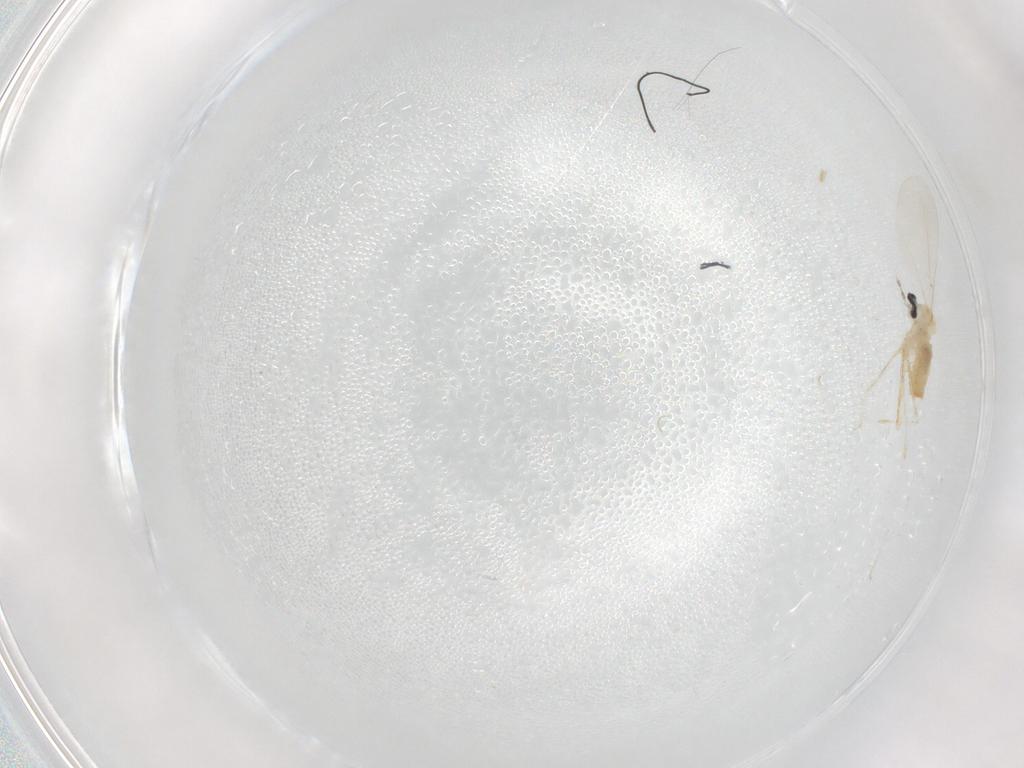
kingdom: Animalia
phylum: Arthropoda
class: Insecta
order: Diptera
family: Cecidomyiidae
